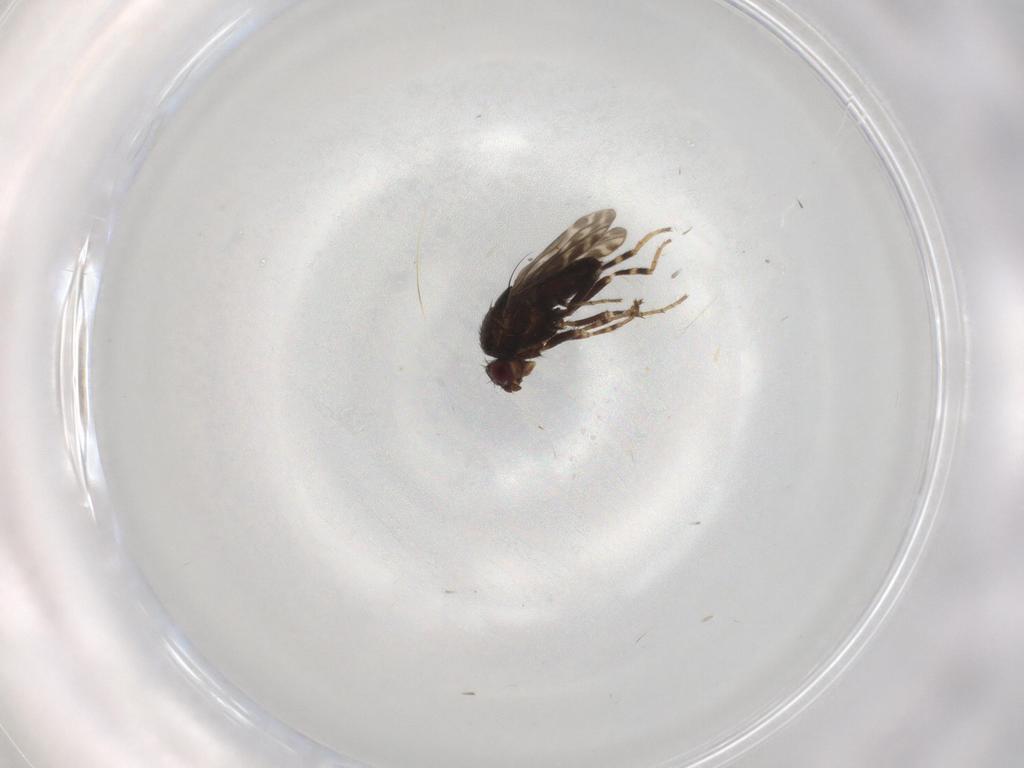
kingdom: Animalia
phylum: Arthropoda
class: Insecta
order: Diptera
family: Sphaeroceridae
